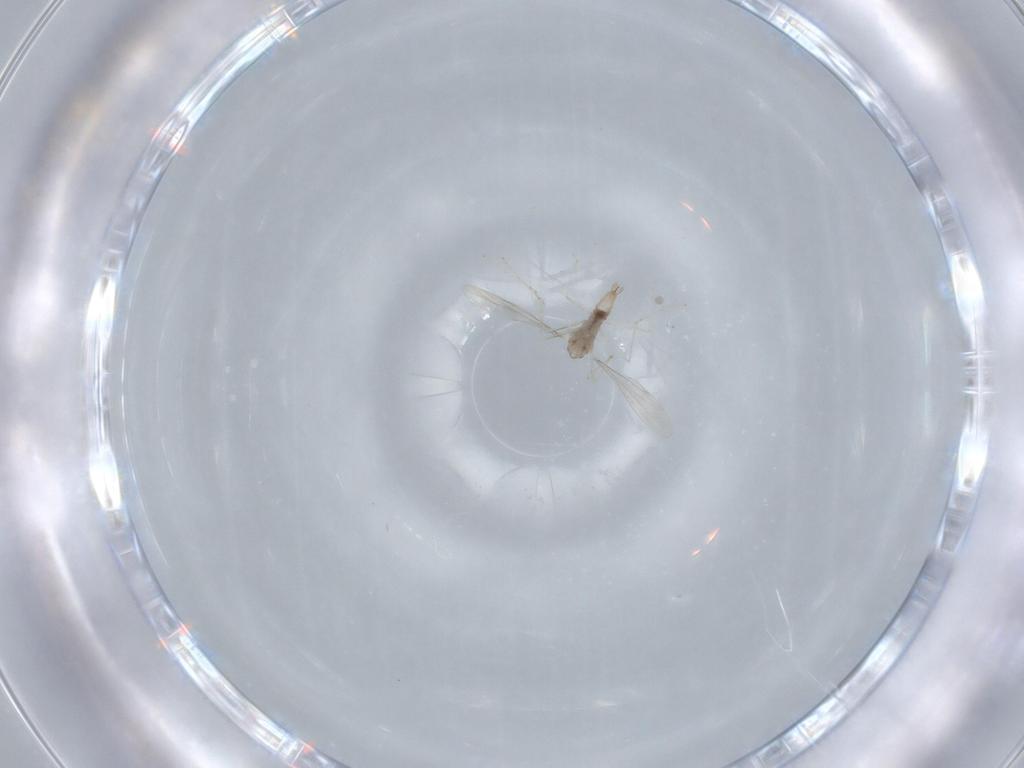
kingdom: Animalia
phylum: Arthropoda
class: Insecta
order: Diptera
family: Cecidomyiidae
